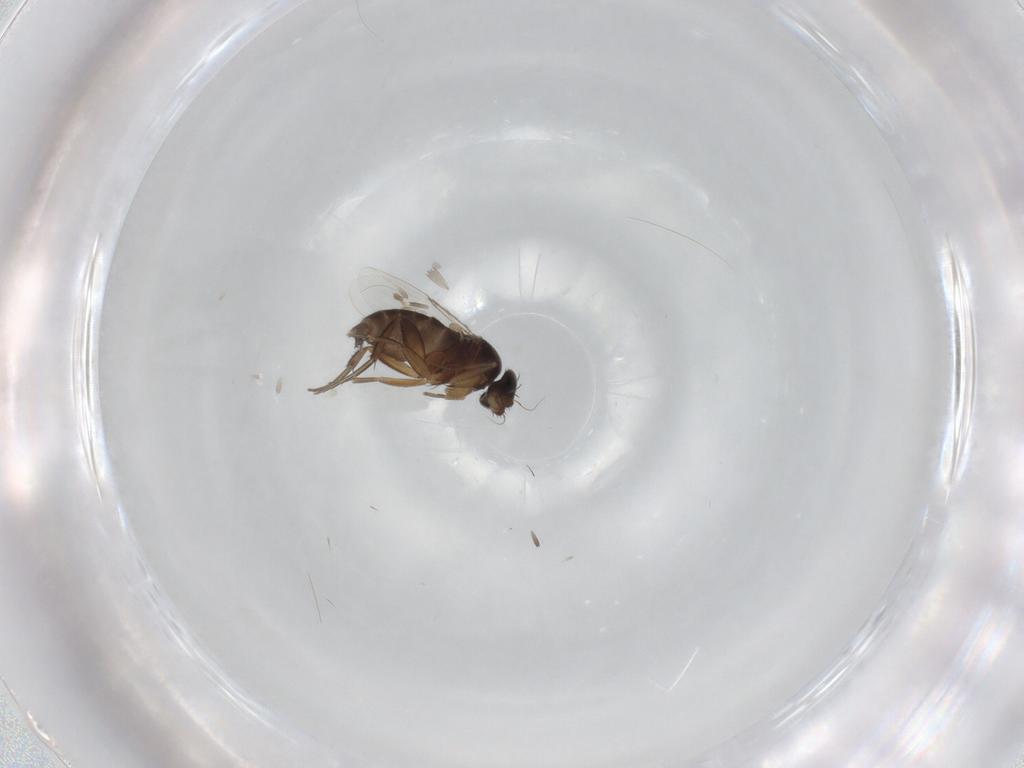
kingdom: Animalia
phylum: Arthropoda
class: Insecta
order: Diptera
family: Phoridae
